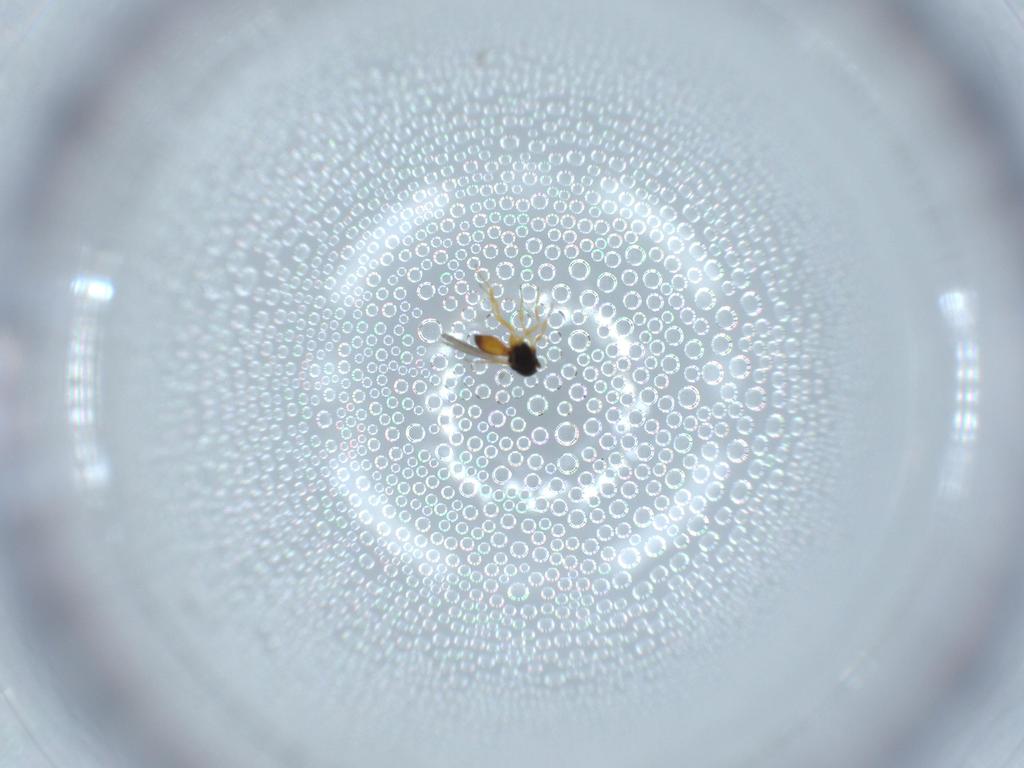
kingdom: Animalia
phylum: Arthropoda
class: Insecta
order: Hymenoptera
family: Scelionidae
